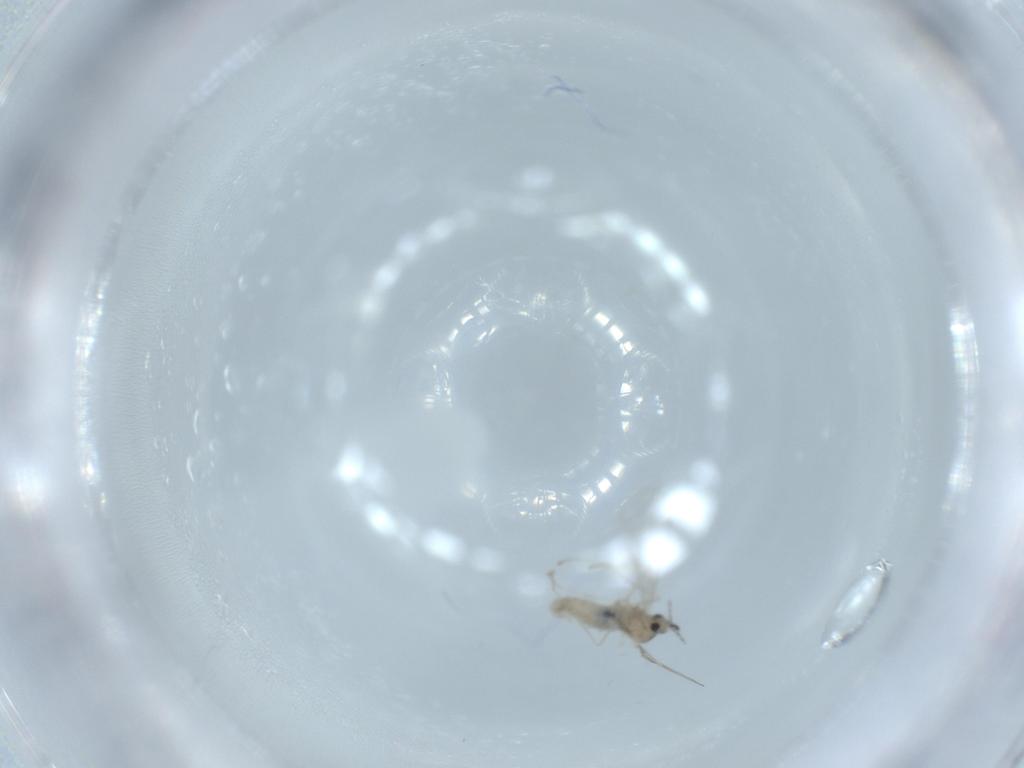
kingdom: Animalia
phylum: Arthropoda
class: Insecta
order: Diptera
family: Cecidomyiidae
